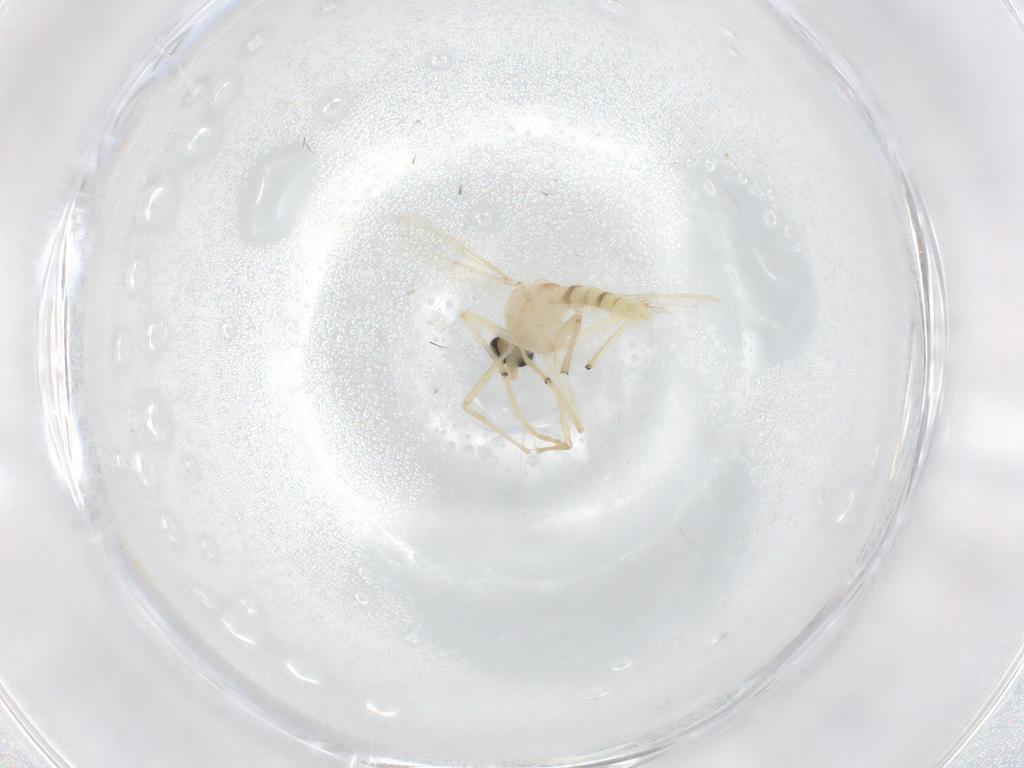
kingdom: Animalia
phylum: Arthropoda
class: Insecta
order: Diptera
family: Chironomidae
